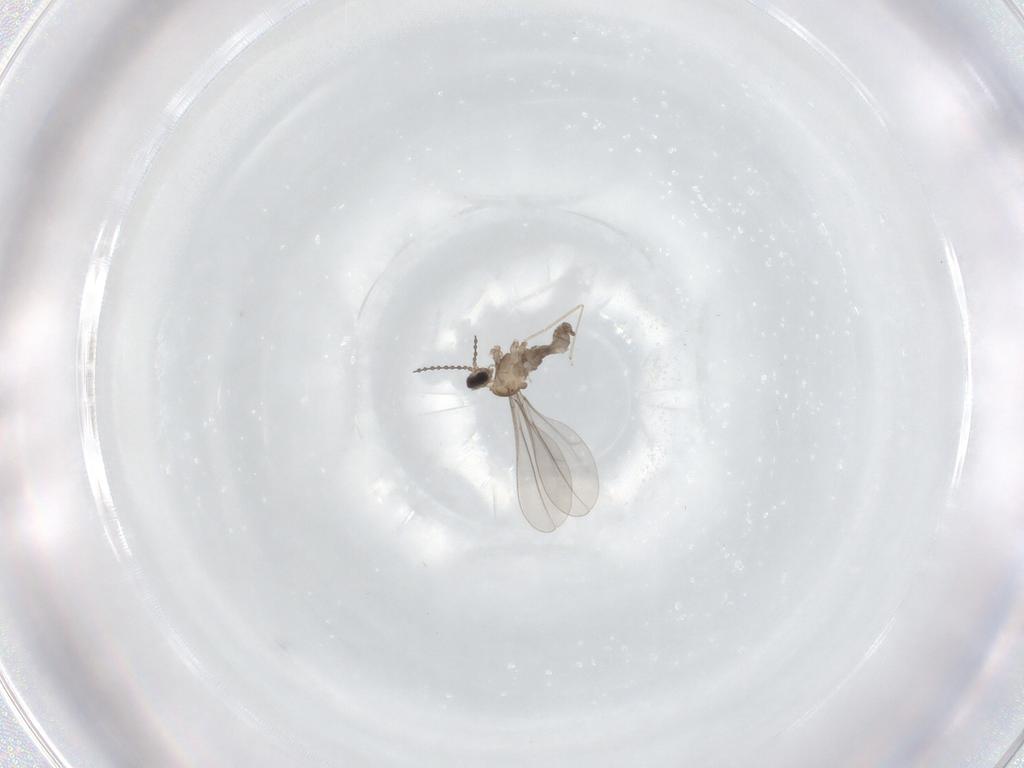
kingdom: Animalia
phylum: Arthropoda
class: Insecta
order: Diptera
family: Cecidomyiidae
